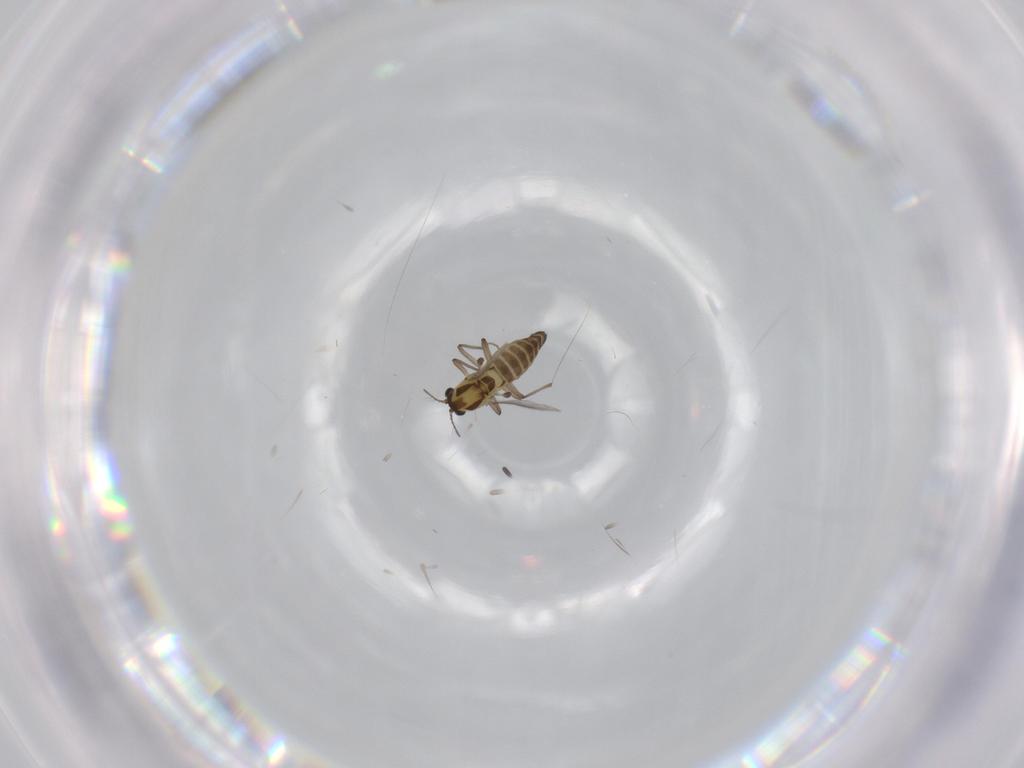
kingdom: Animalia
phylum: Arthropoda
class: Insecta
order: Diptera
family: Chironomidae
